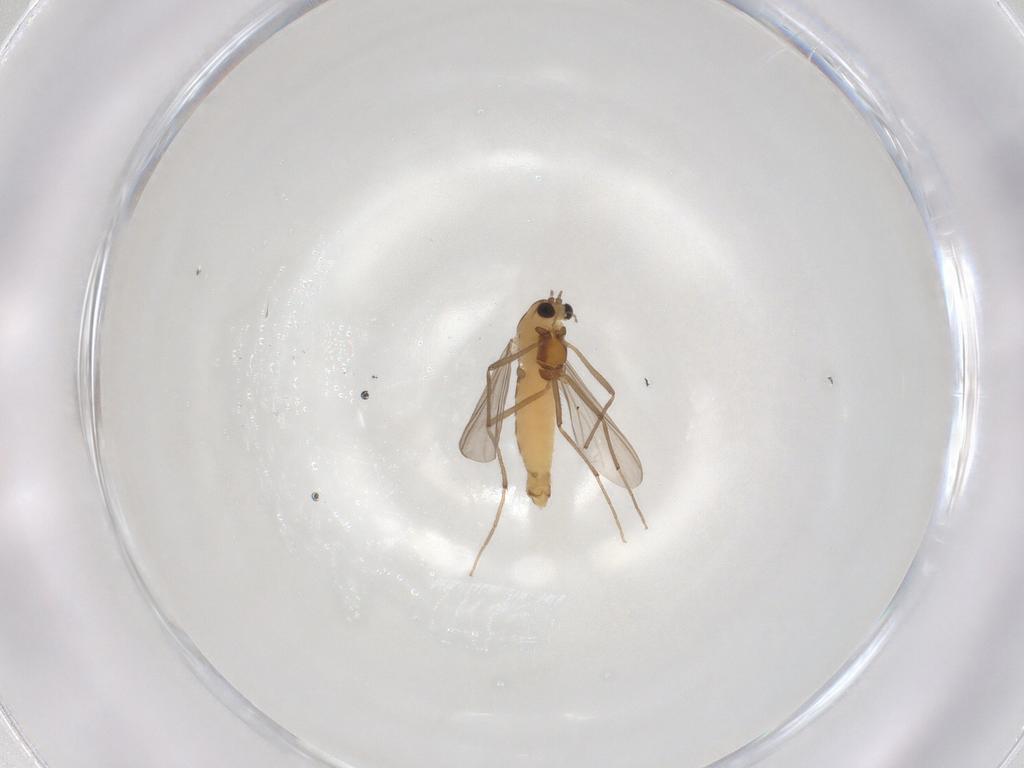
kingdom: Animalia
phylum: Arthropoda
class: Insecta
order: Diptera
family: Chironomidae
